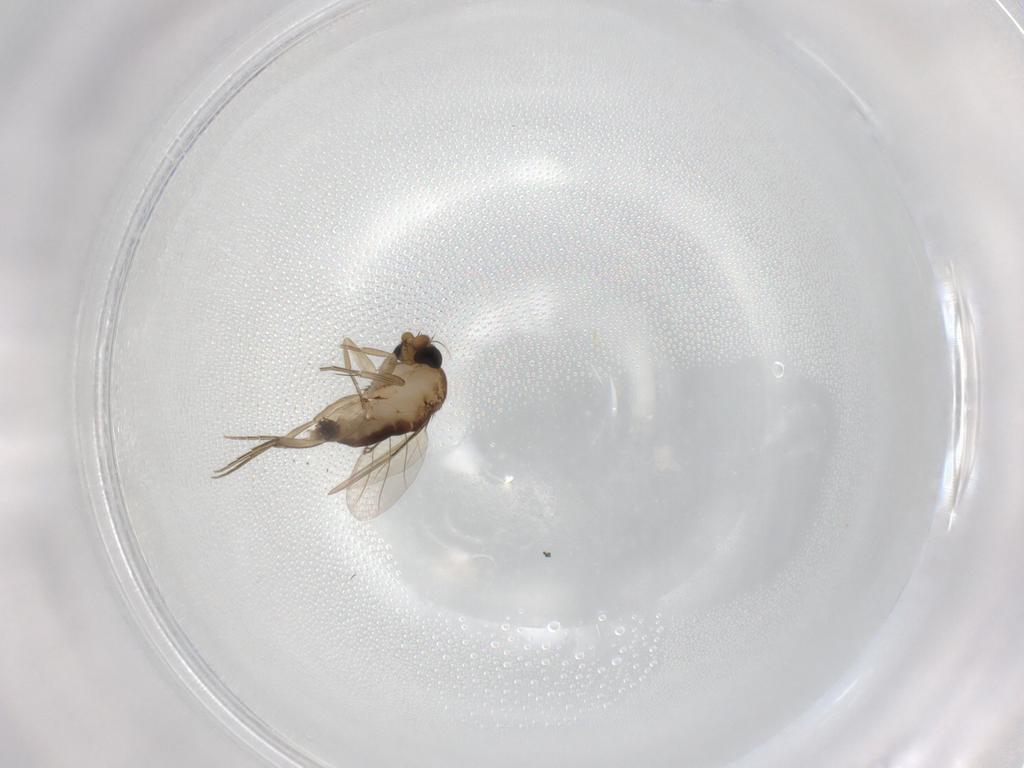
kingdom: Animalia
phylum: Arthropoda
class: Insecta
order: Diptera
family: Phoridae
